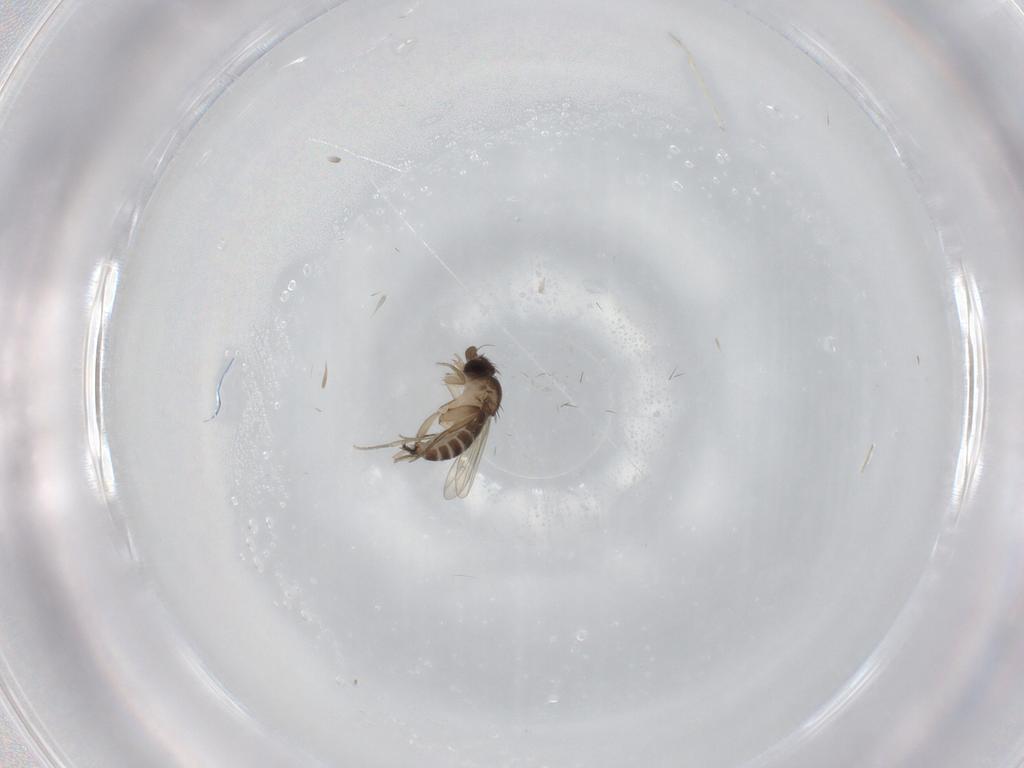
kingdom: Animalia
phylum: Arthropoda
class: Insecta
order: Diptera
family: Phoridae
